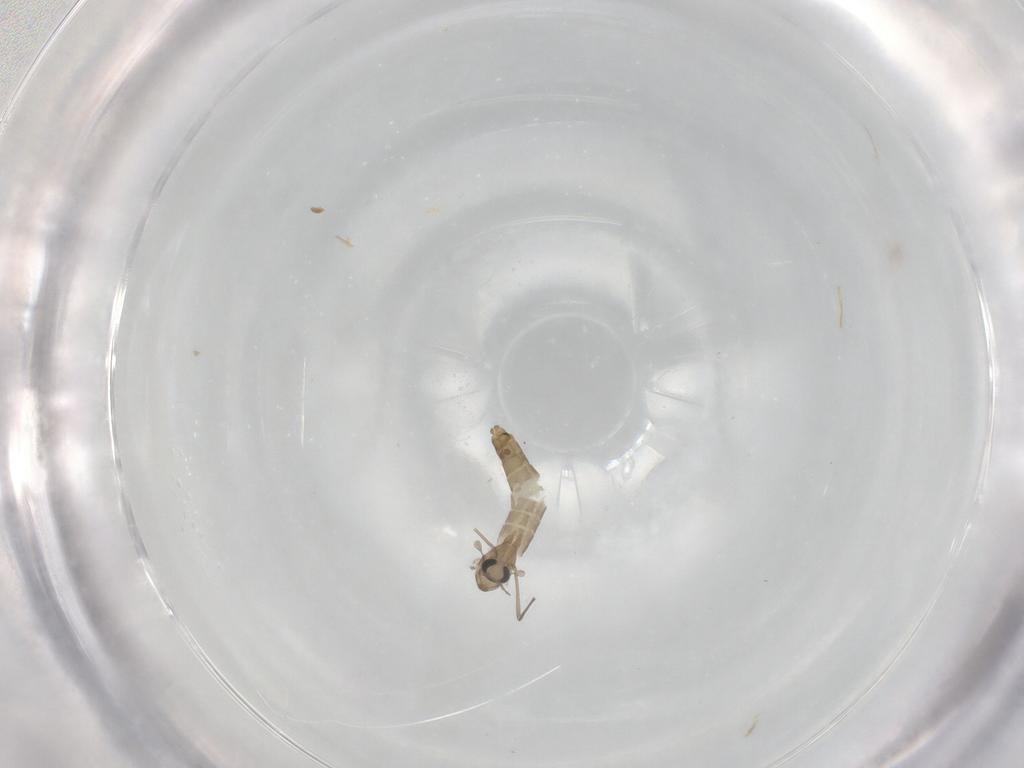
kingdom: Animalia
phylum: Arthropoda
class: Insecta
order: Diptera
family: Chironomidae
